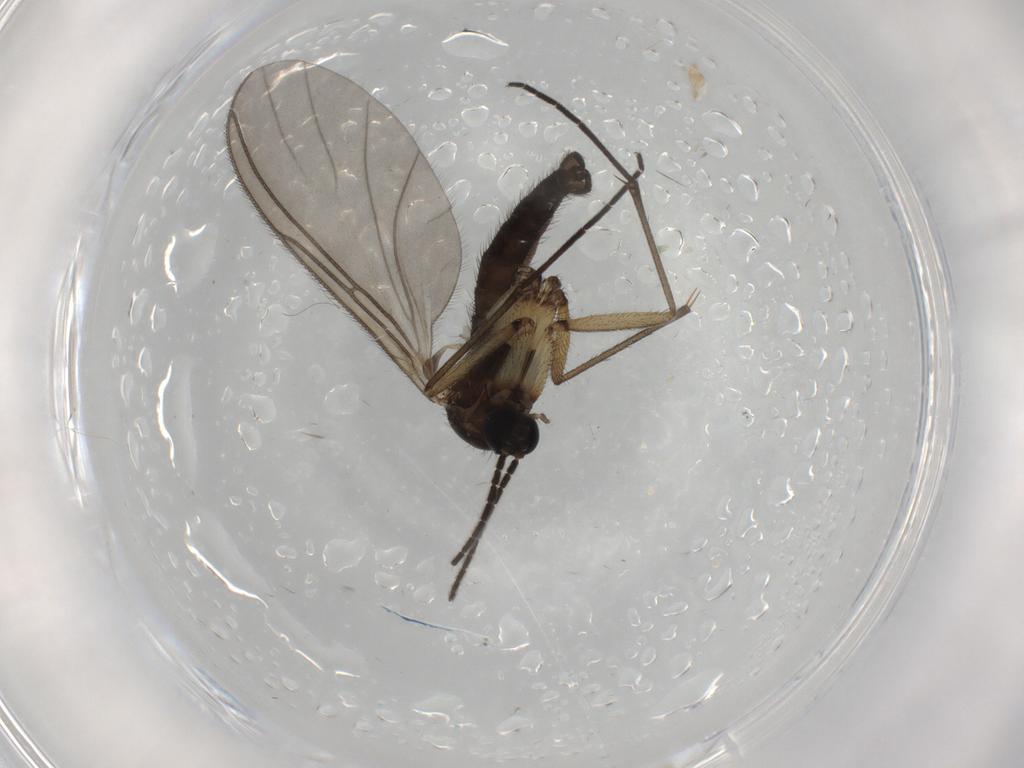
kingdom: Animalia
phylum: Arthropoda
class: Insecta
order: Diptera
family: Sciaridae
